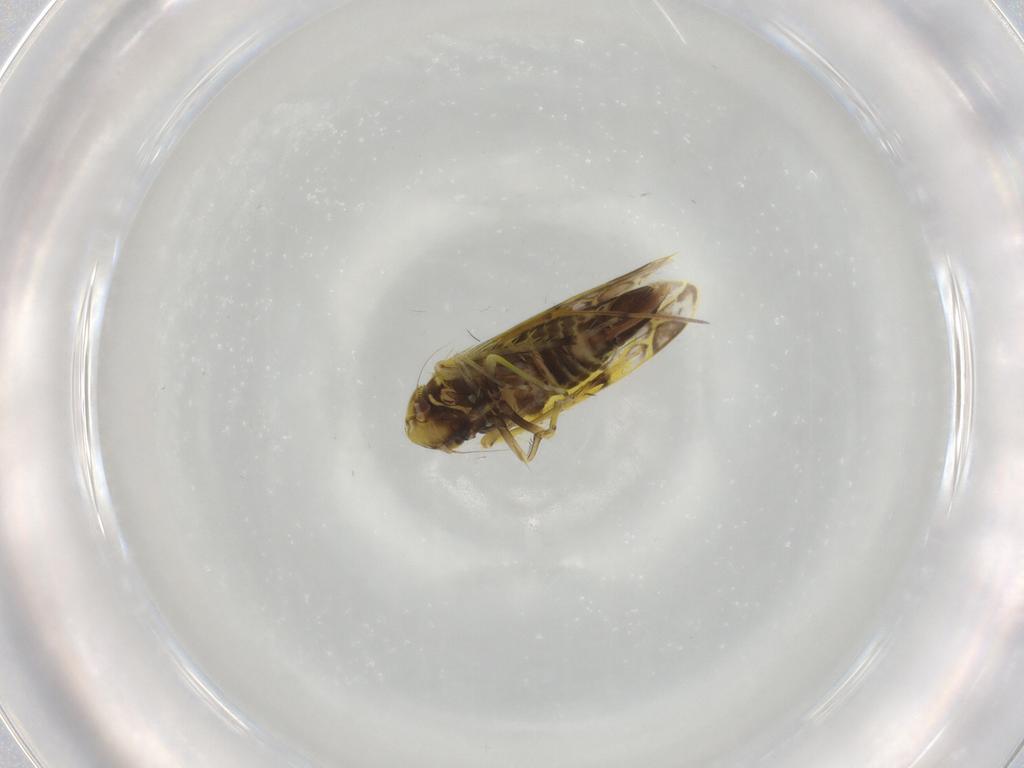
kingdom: Animalia
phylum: Arthropoda
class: Insecta
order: Hemiptera
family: Cicadellidae
